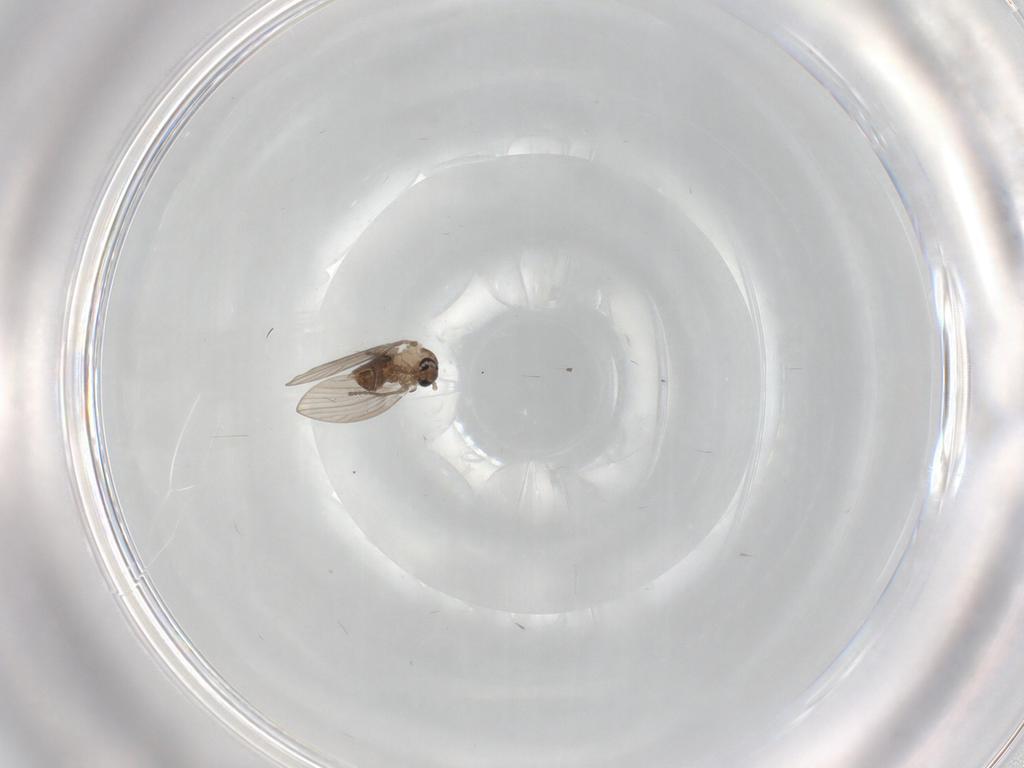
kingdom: Animalia
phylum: Arthropoda
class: Insecta
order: Diptera
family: Psychodidae
